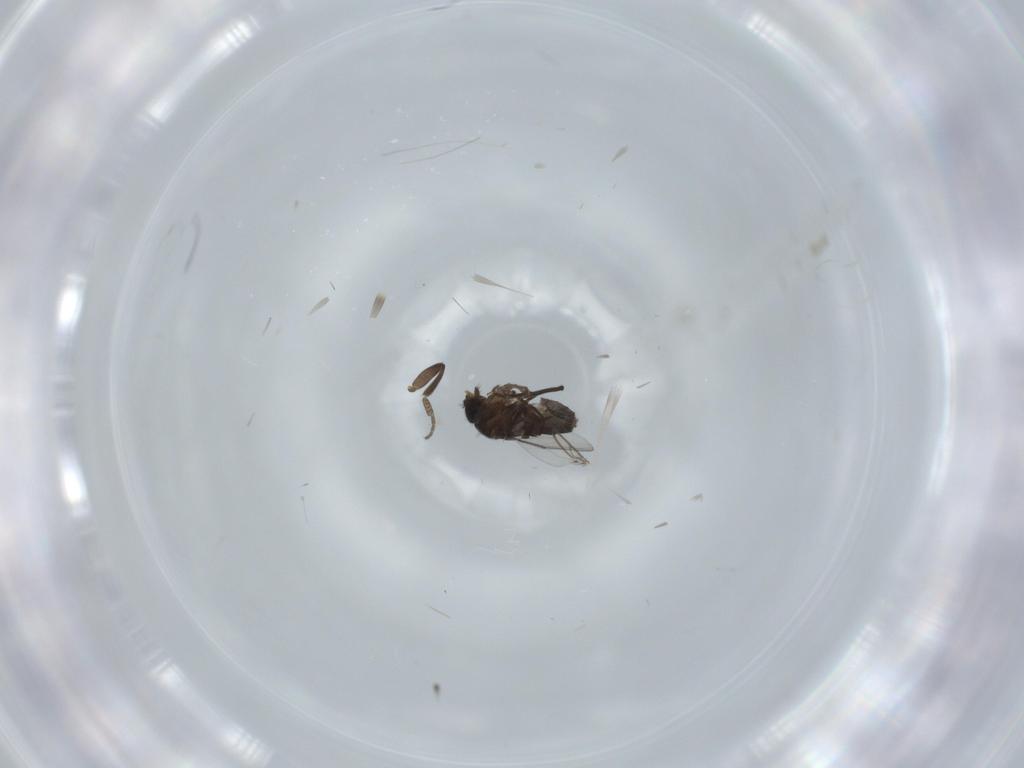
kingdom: Animalia
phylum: Arthropoda
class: Insecta
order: Diptera
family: Phoridae
